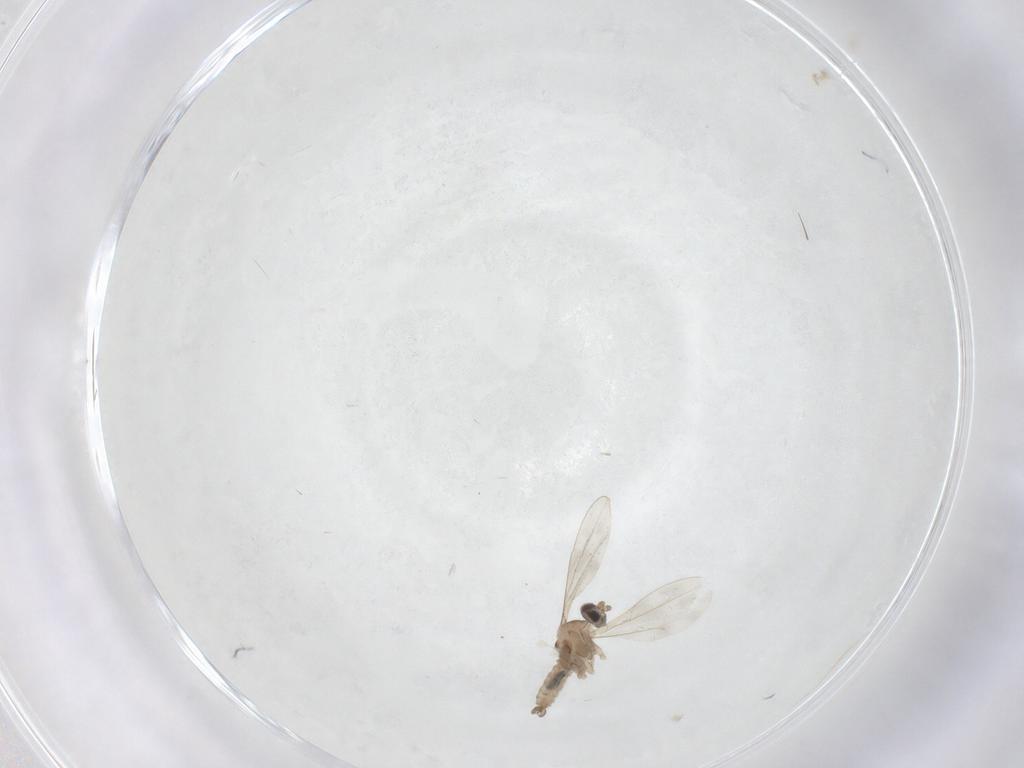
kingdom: Animalia
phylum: Arthropoda
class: Insecta
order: Diptera
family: Cecidomyiidae
